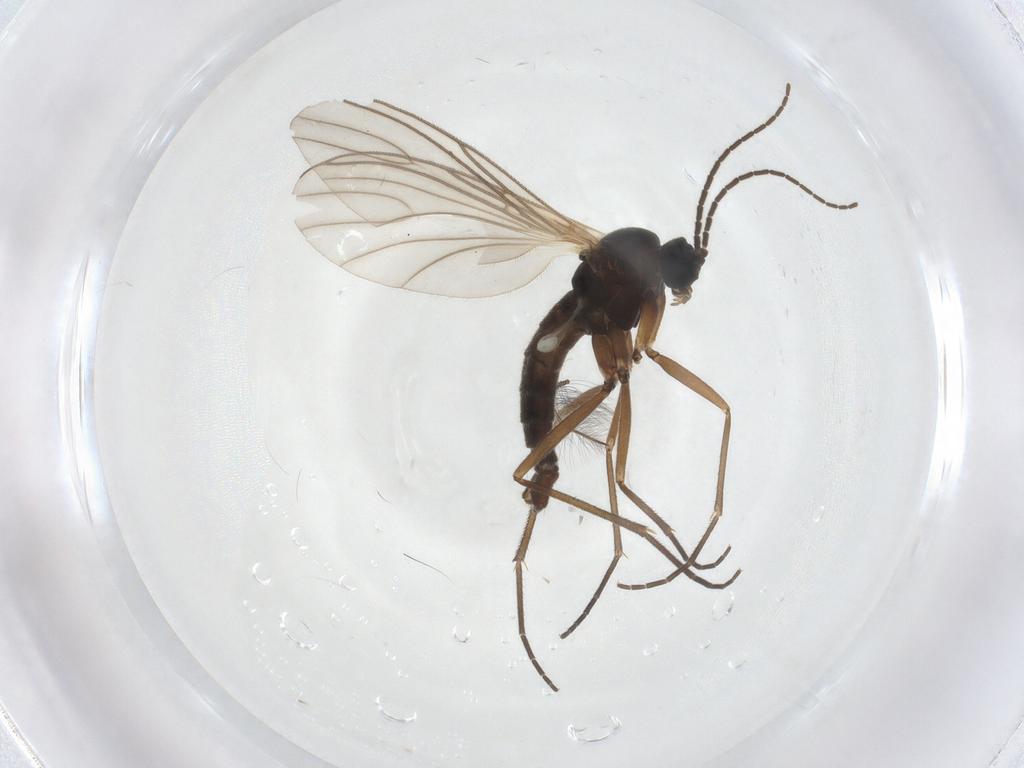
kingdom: Animalia
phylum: Arthropoda
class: Insecta
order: Diptera
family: Sciaridae
